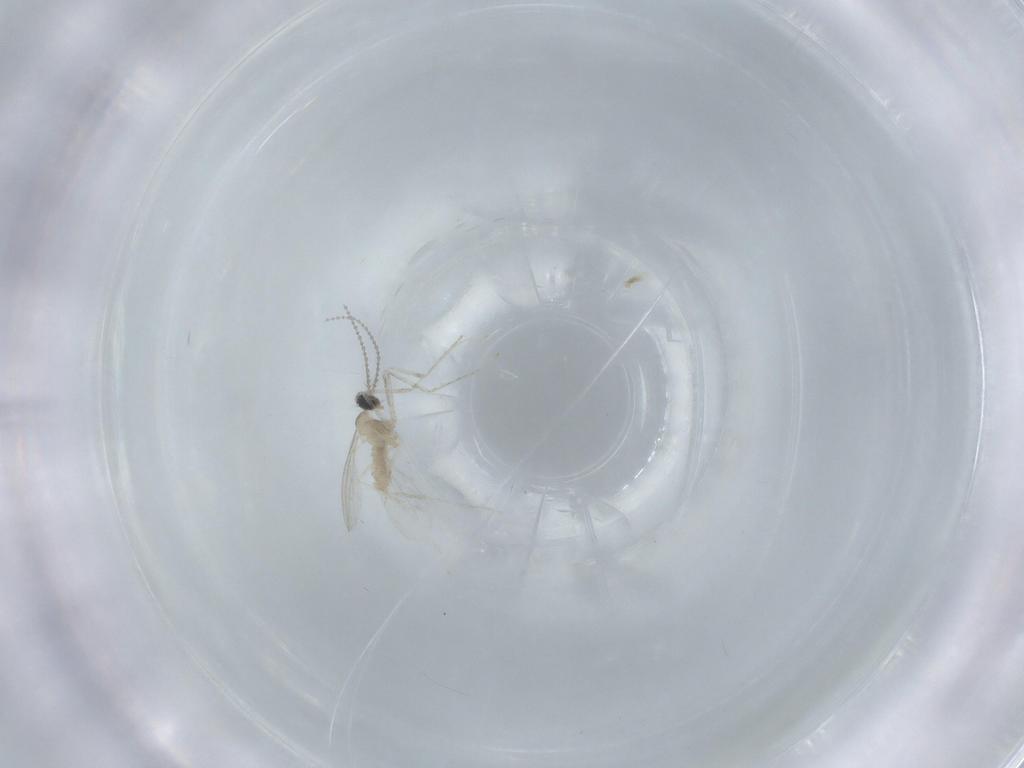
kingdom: Animalia
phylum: Arthropoda
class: Insecta
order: Diptera
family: Cecidomyiidae
